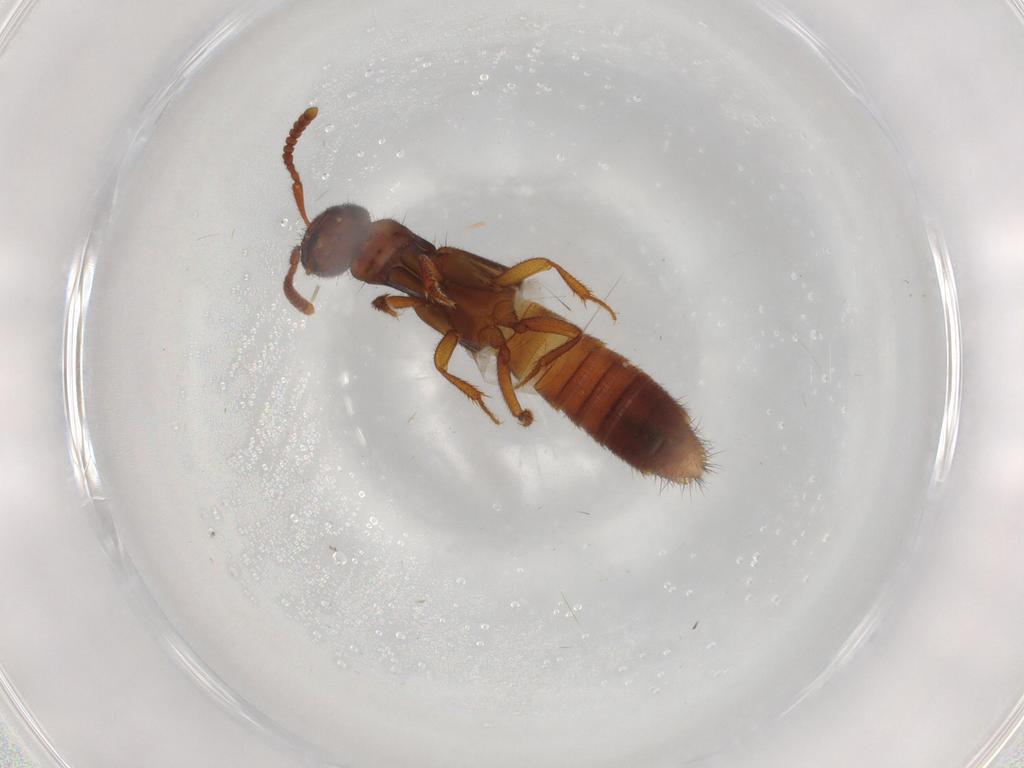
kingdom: Animalia
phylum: Arthropoda
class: Insecta
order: Coleoptera
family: Staphylinidae
